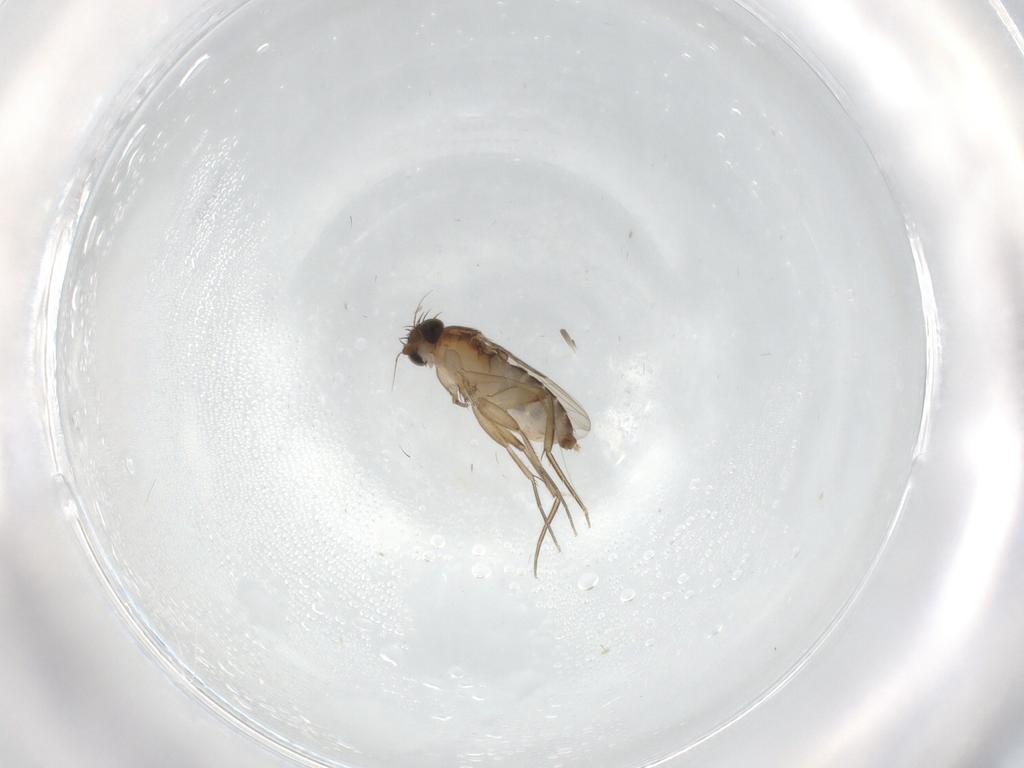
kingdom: Animalia
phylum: Arthropoda
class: Insecta
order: Diptera
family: Phoridae
